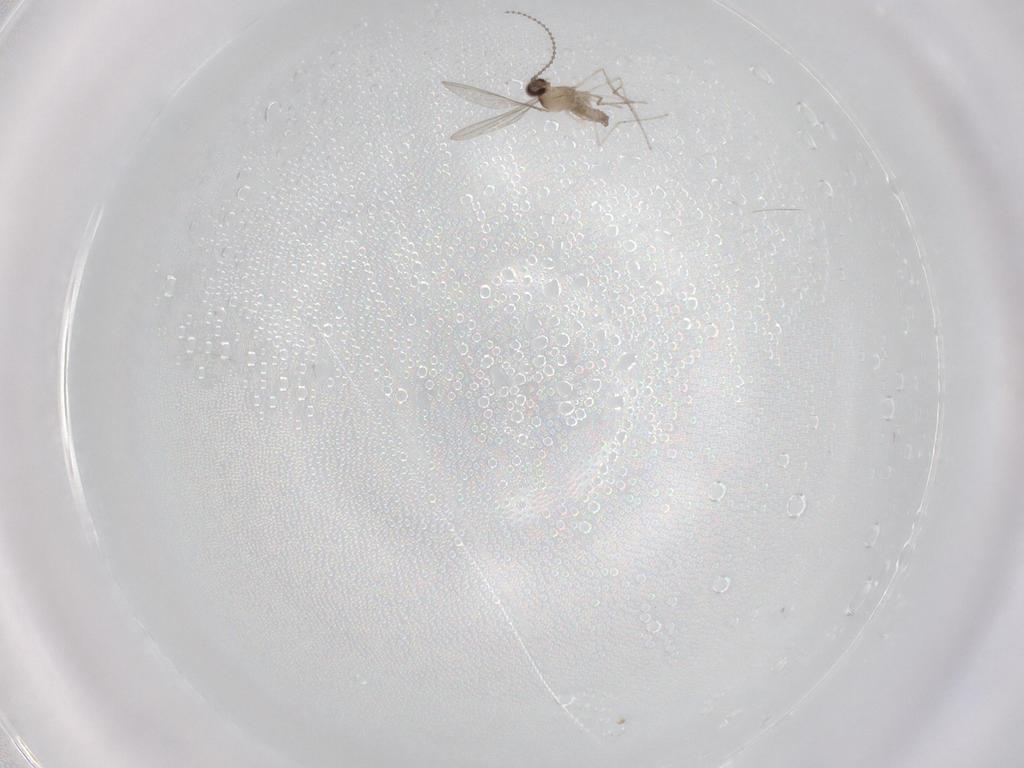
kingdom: Animalia
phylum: Arthropoda
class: Insecta
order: Diptera
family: Cecidomyiidae
